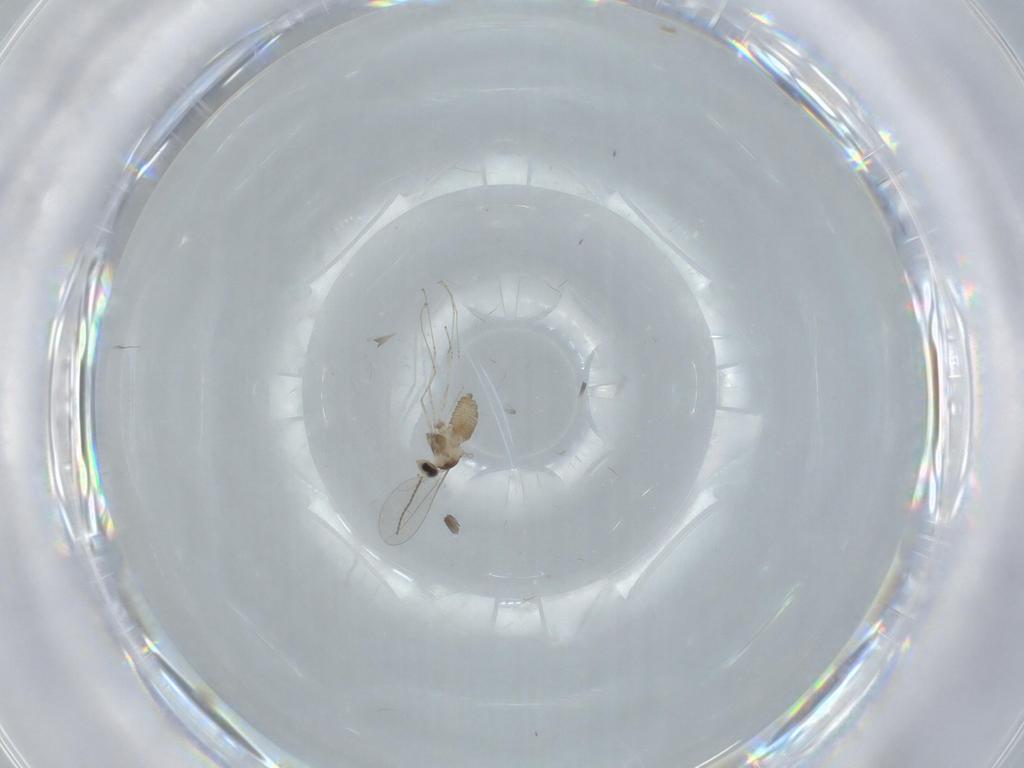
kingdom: Animalia
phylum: Arthropoda
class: Insecta
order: Diptera
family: Cecidomyiidae
